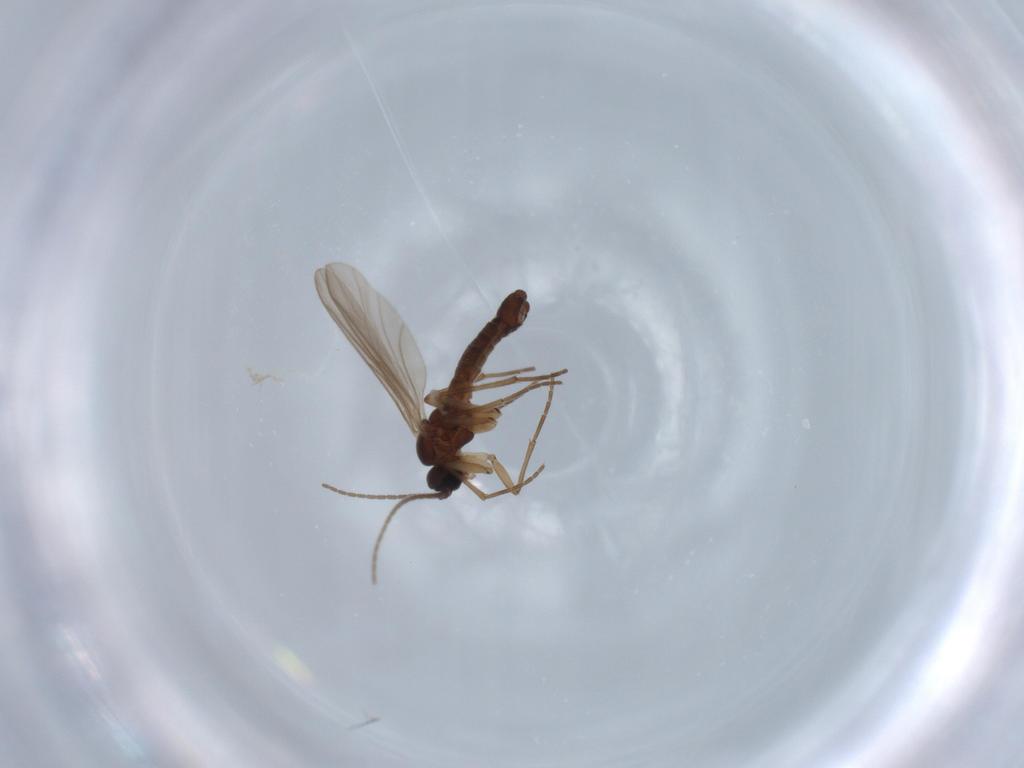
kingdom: Animalia
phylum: Arthropoda
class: Insecta
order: Diptera
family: Sciaridae
